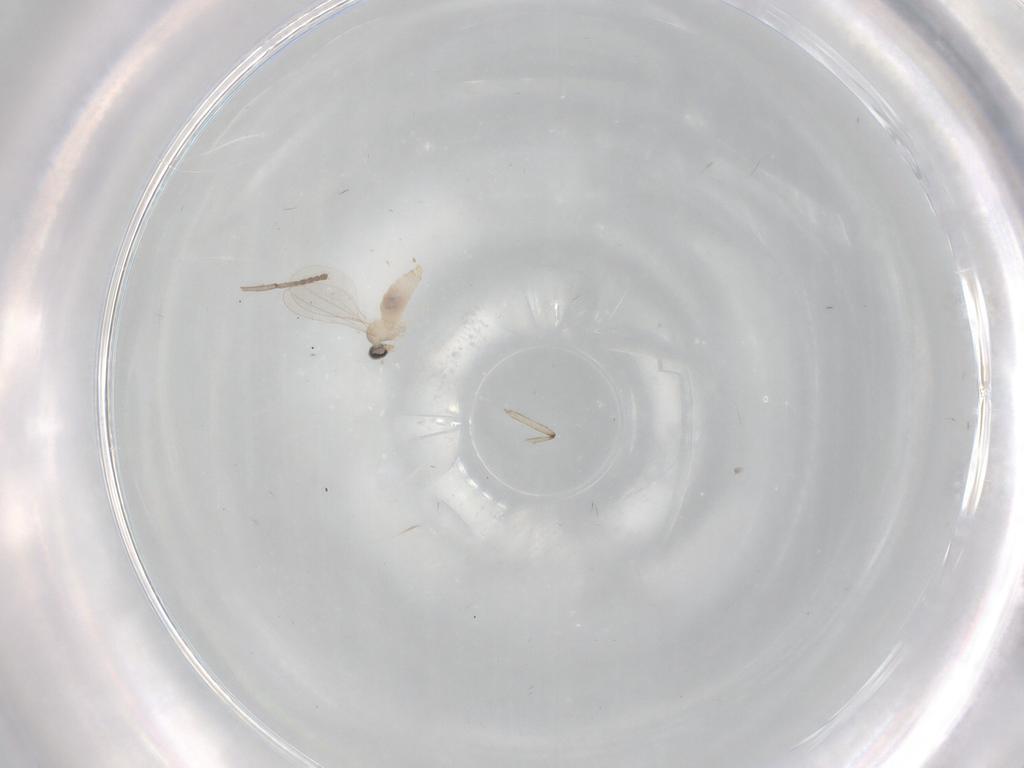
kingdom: Animalia
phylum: Arthropoda
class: Insecta
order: Diptera
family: Cecidomyiidae
